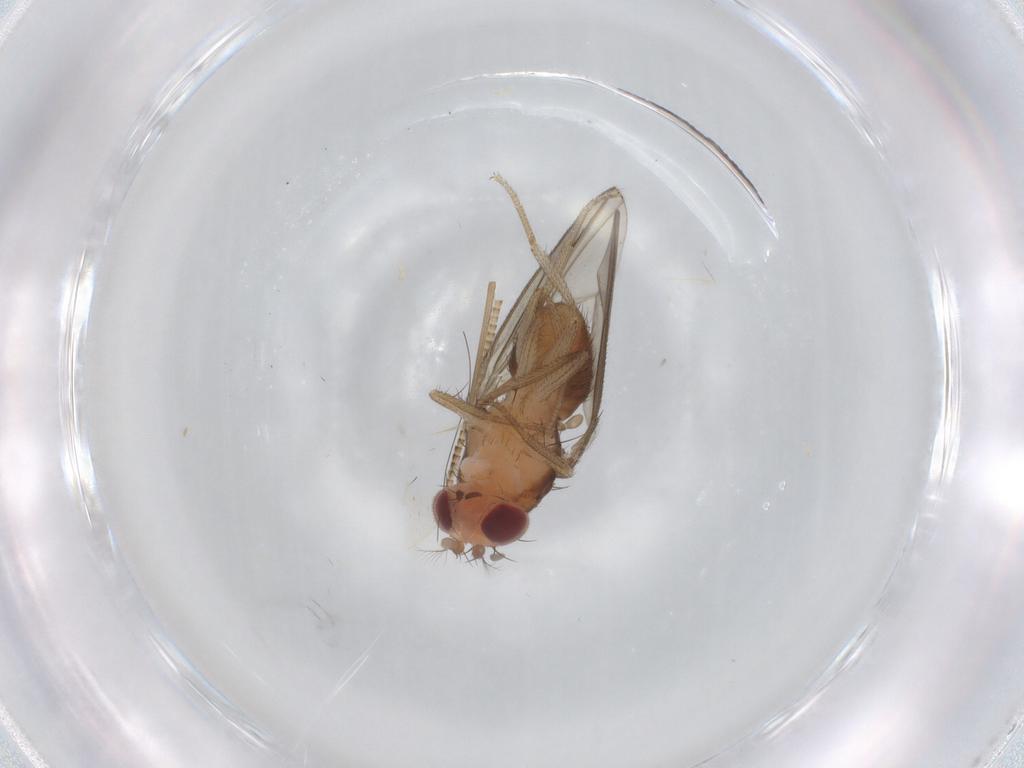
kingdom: Animalia
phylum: Arthropoda
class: Insecta
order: Diptera
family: Drosophilidae
